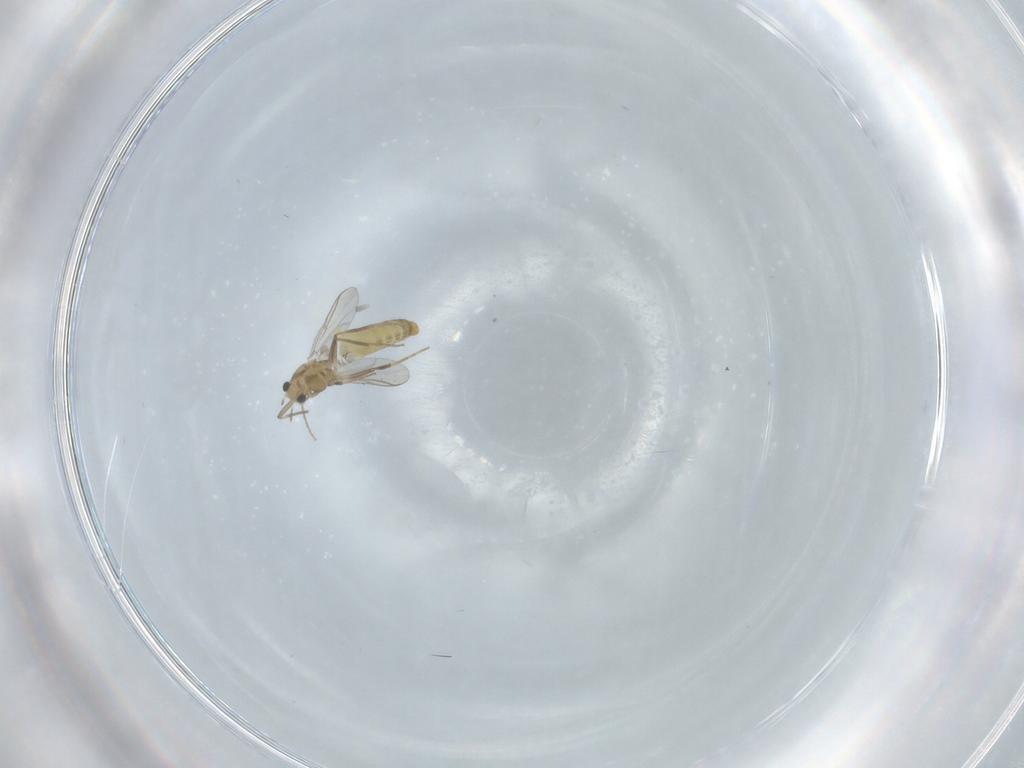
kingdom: Animalia
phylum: Arthropoda
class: Insecta
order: Diptera
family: Chironomidae
